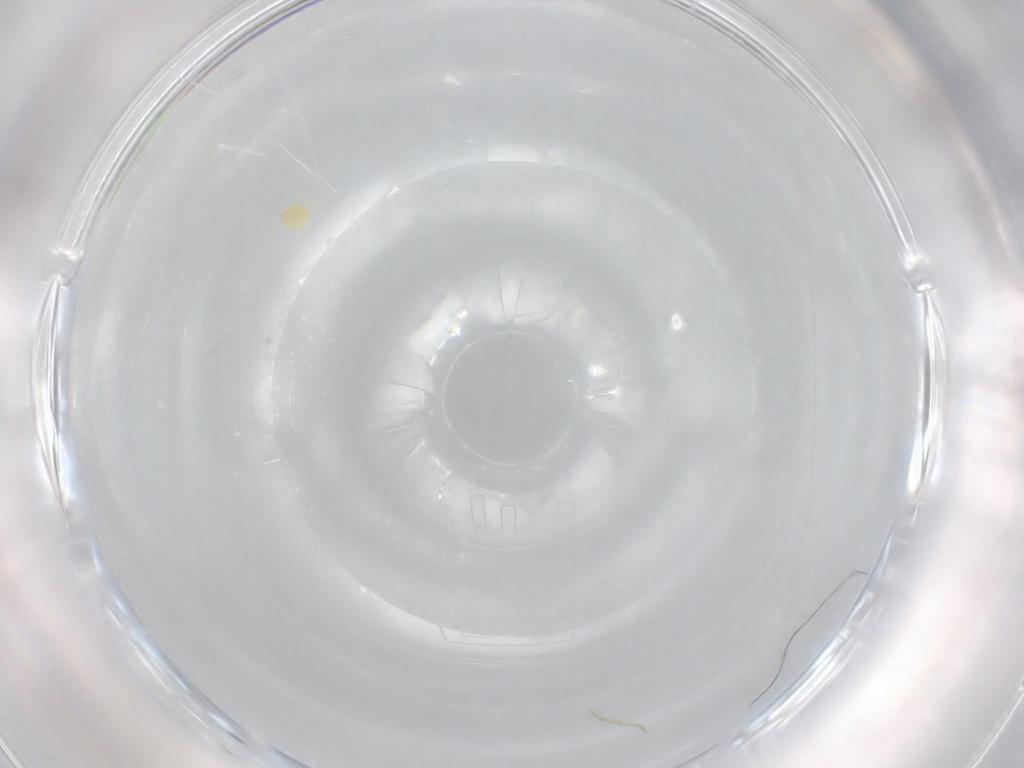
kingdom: Animalia
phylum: Arthropoda
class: Arachnida
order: Trombidiformes
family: Cunaxidae
